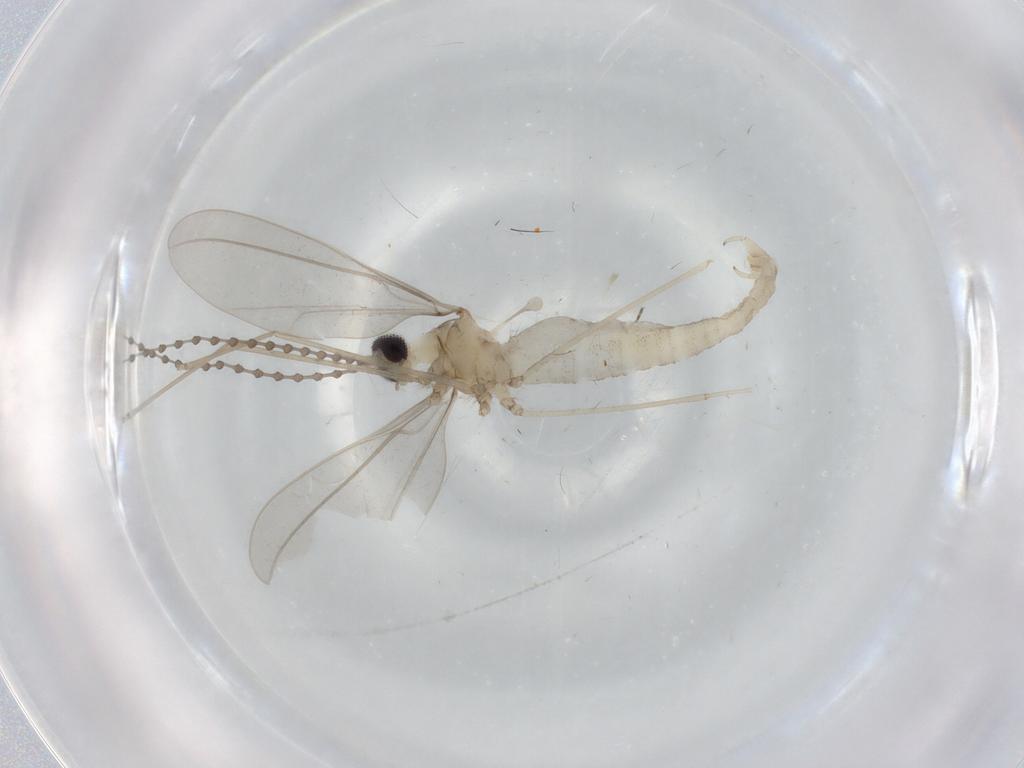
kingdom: Animalia
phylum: Arthropoda
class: Insecta
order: Diptera
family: Cecidomyiidae
